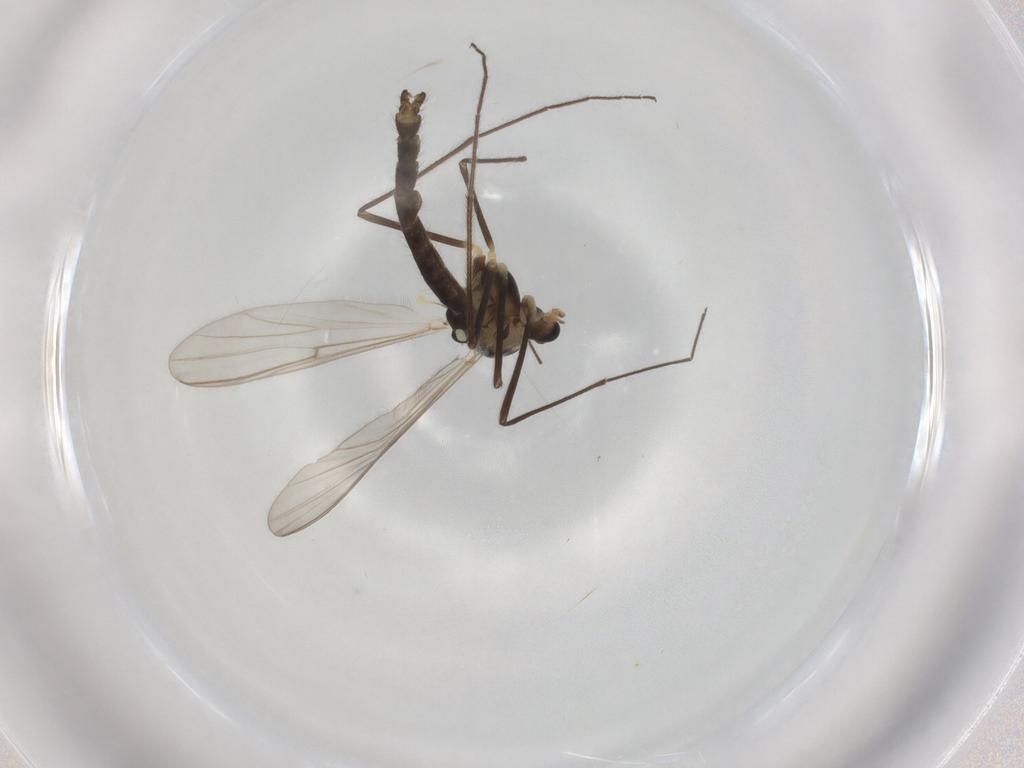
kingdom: Animalia
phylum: Arthropoda
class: Insecta
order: Diptera
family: Chironomidae
